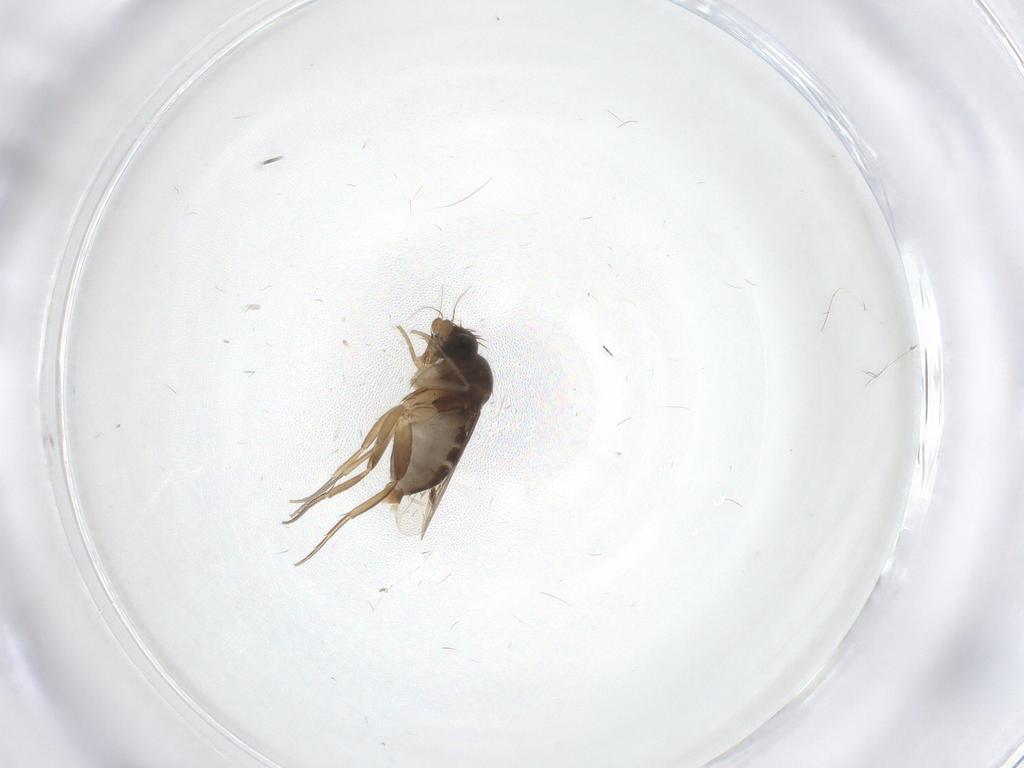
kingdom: Animalia
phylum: Arthropoda
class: Insecta
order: Diptera
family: Phoridae
